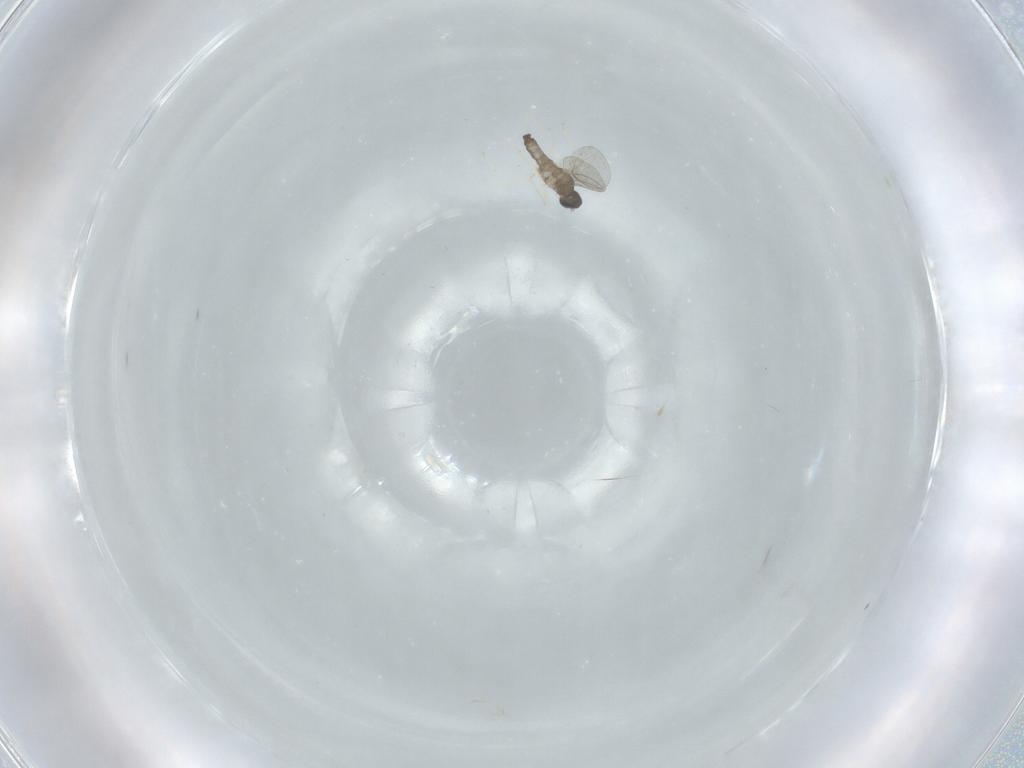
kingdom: Animalia
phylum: Arthropoda
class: Insecta
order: Diptera
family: Cecidomyiidae
